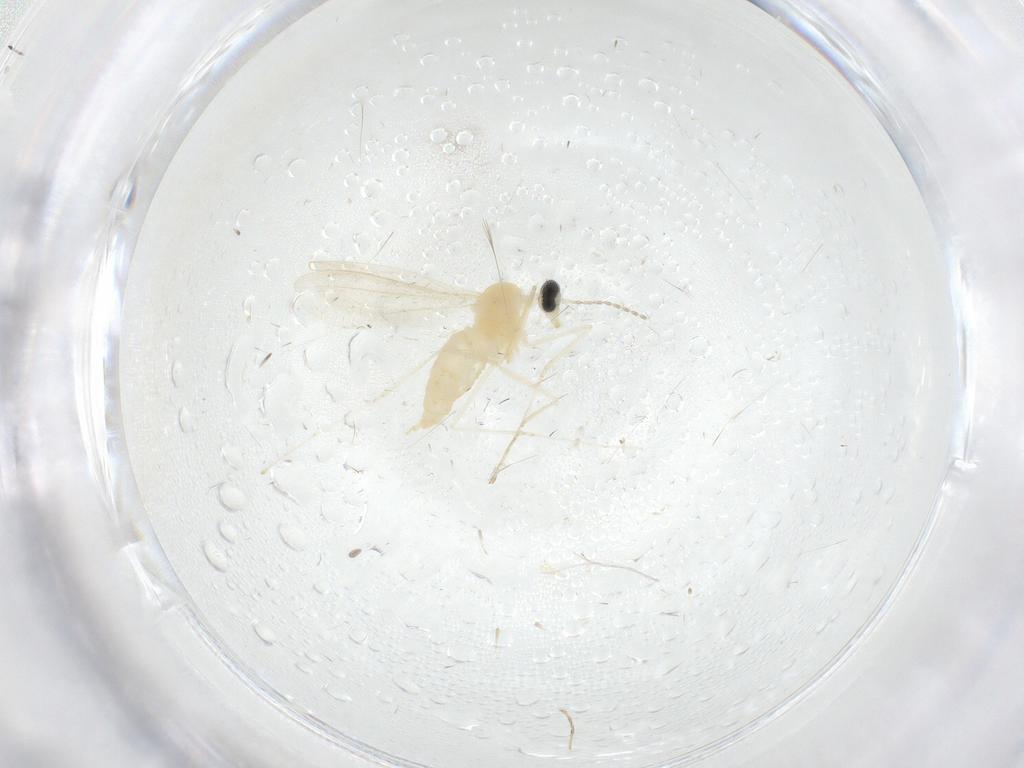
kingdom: Animalia
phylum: Arthropoda
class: Insecta
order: Diptera
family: Cecidomyiidae
